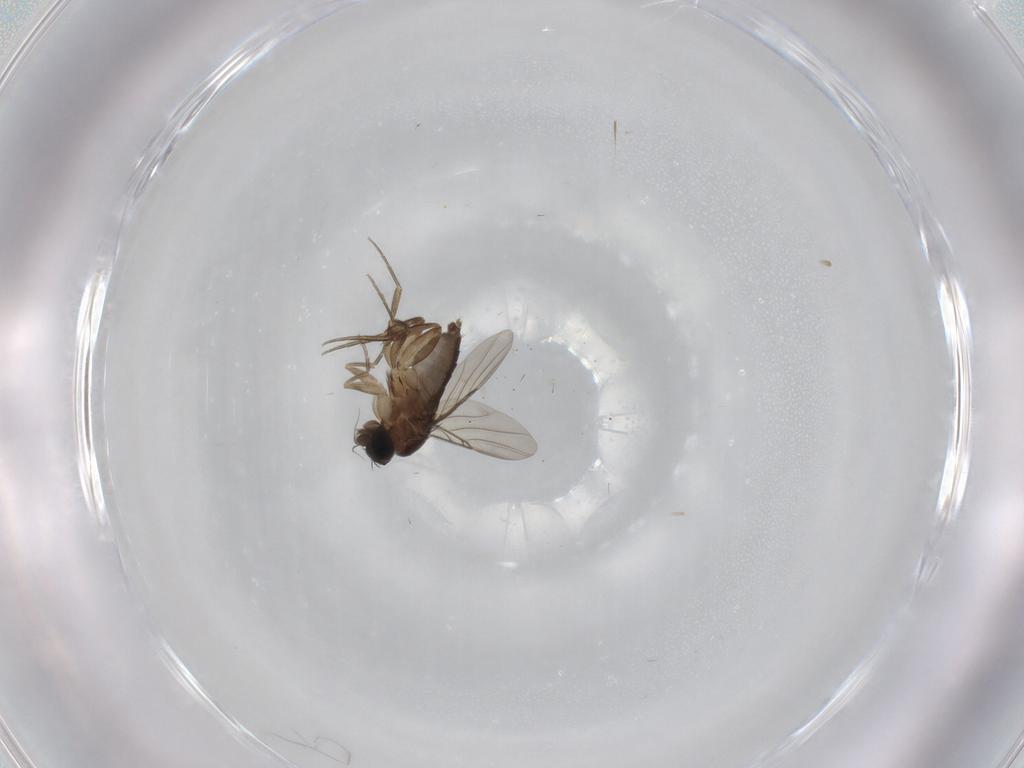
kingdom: Animalia
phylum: Arthropoda
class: Insecta
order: Diptera
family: Phoridae
